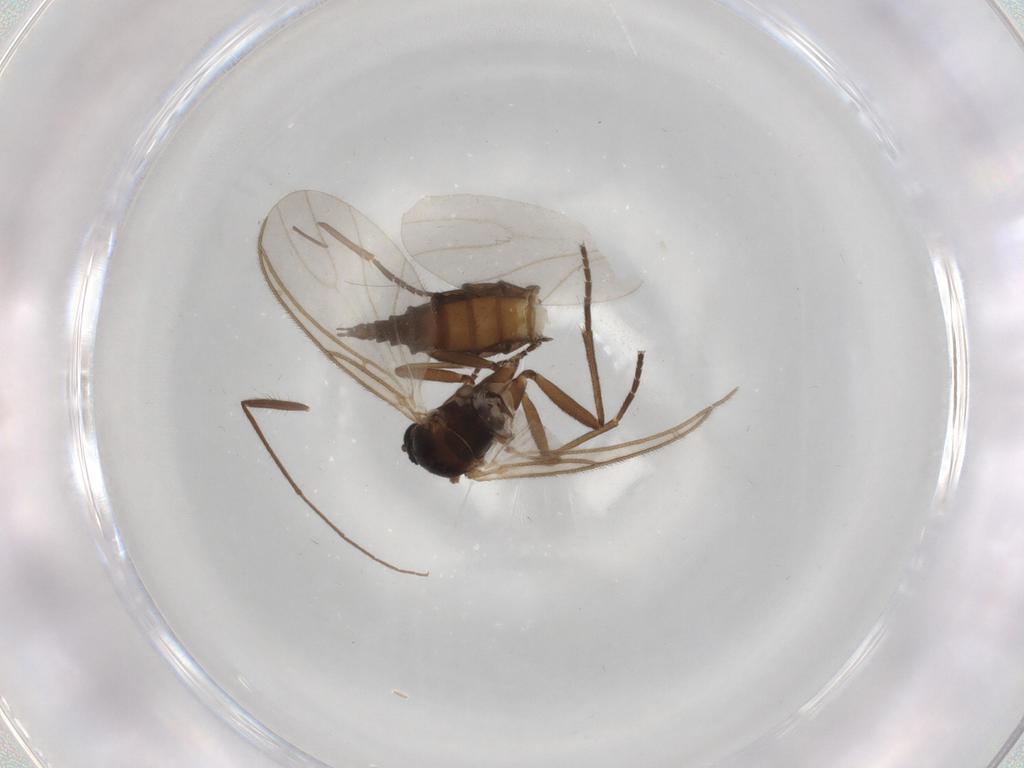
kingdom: Animalia
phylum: Arthropoda
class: Insecta
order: Diptera
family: Sciaridae
